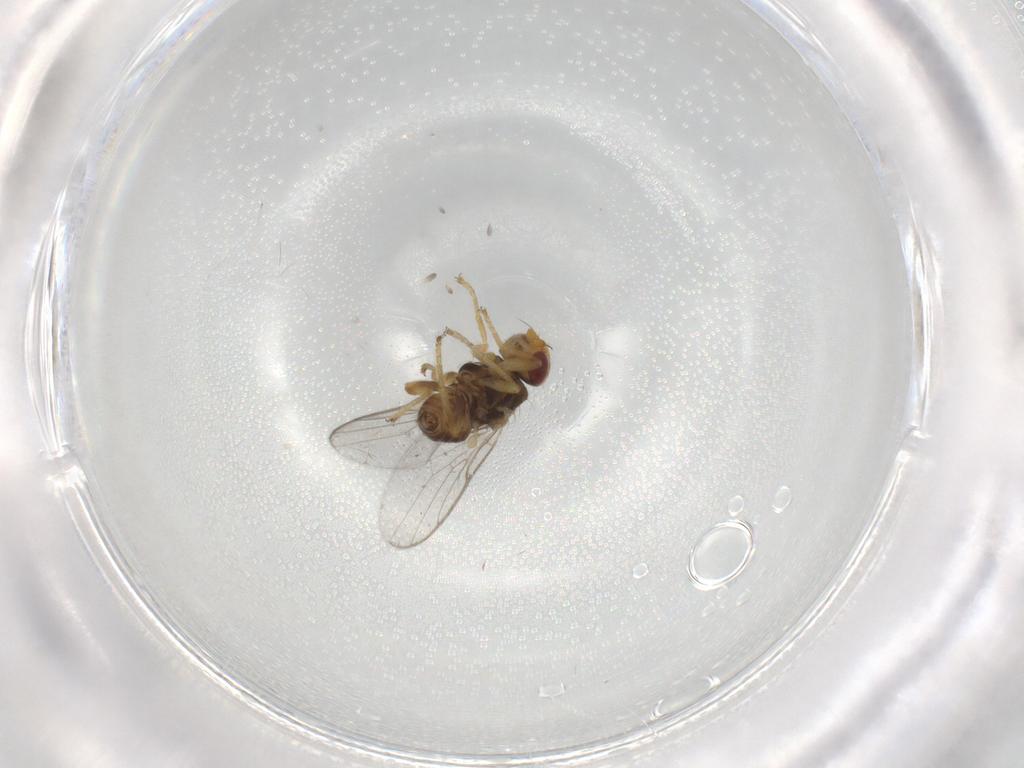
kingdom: Animalia
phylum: Arthropoda
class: Insecta
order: Diptera
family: Chloropidae
